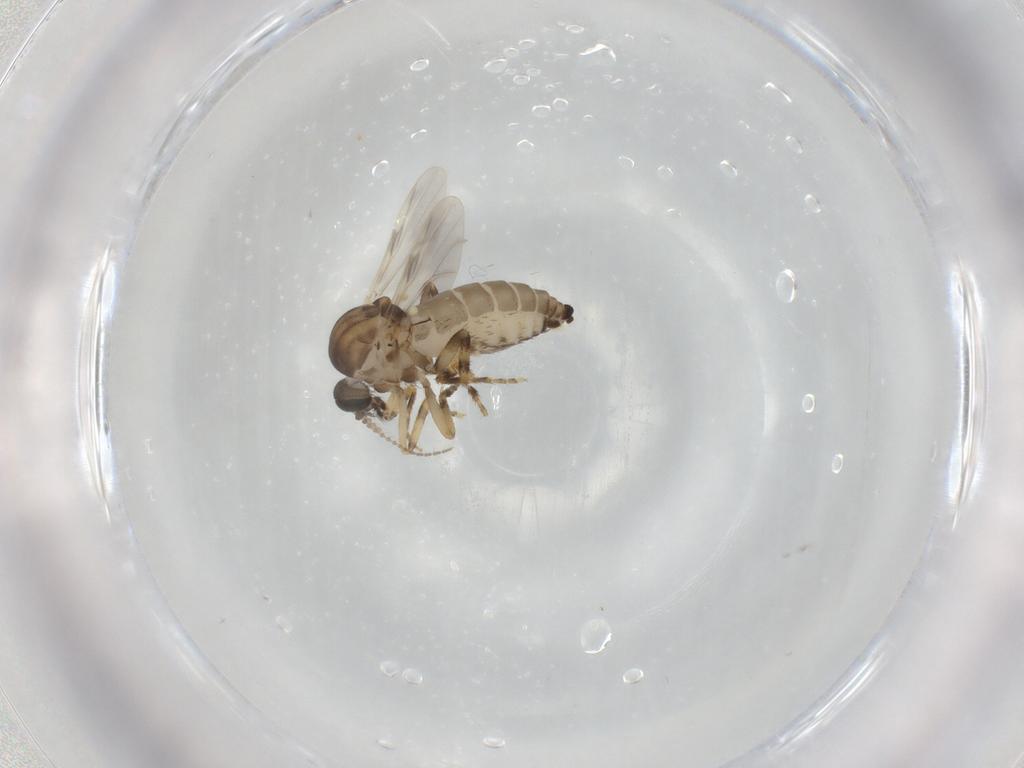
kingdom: Animalia
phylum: Arthropoda
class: Insecta
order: Diptera
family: Ceratopogonidae
